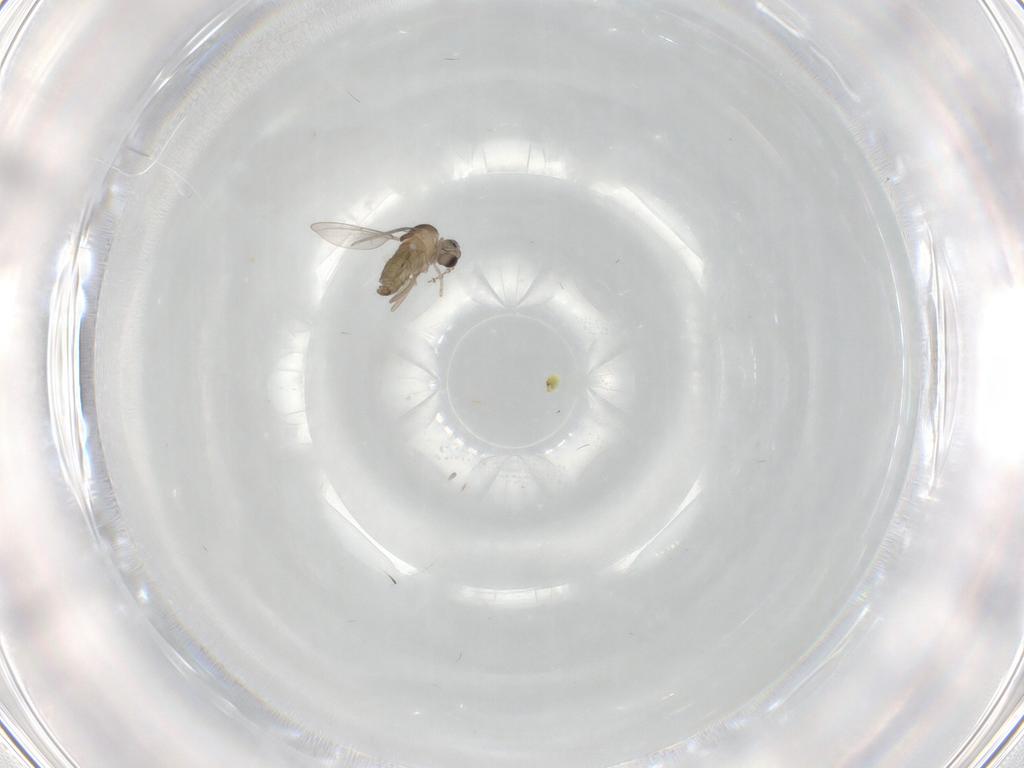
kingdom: Animalia
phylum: Arthropoda
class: Insecta
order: Diptera
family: Cecidomyiidae
